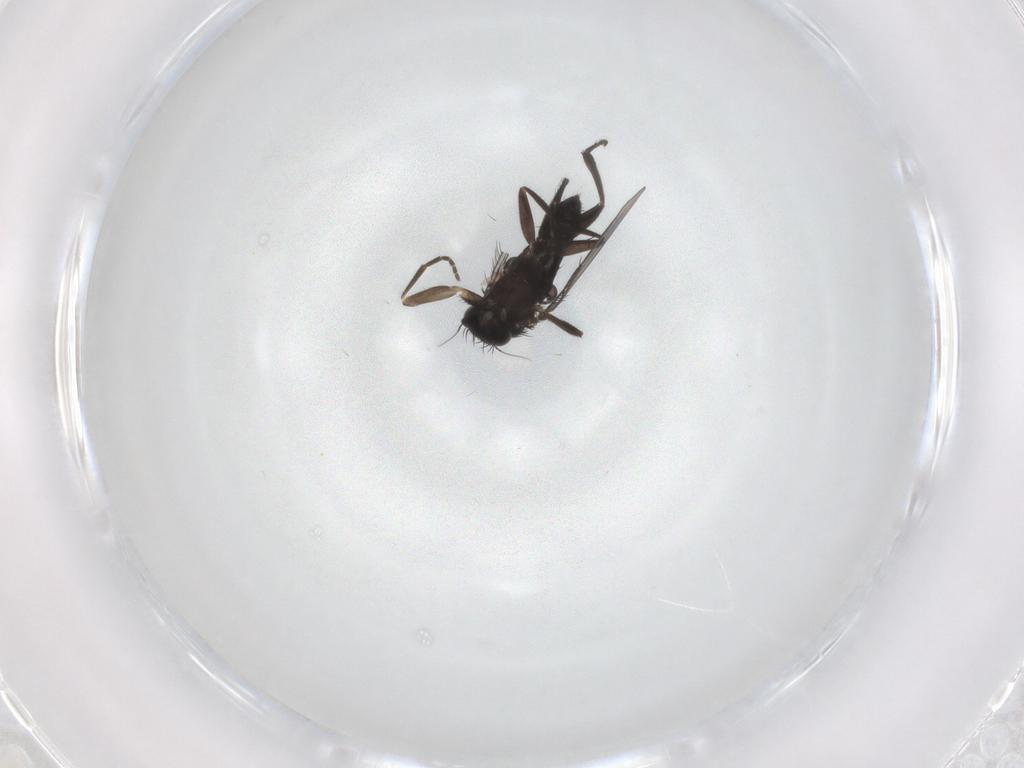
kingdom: Animalia
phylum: Arthropoda
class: Insecta
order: Diptera
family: Phoridae
